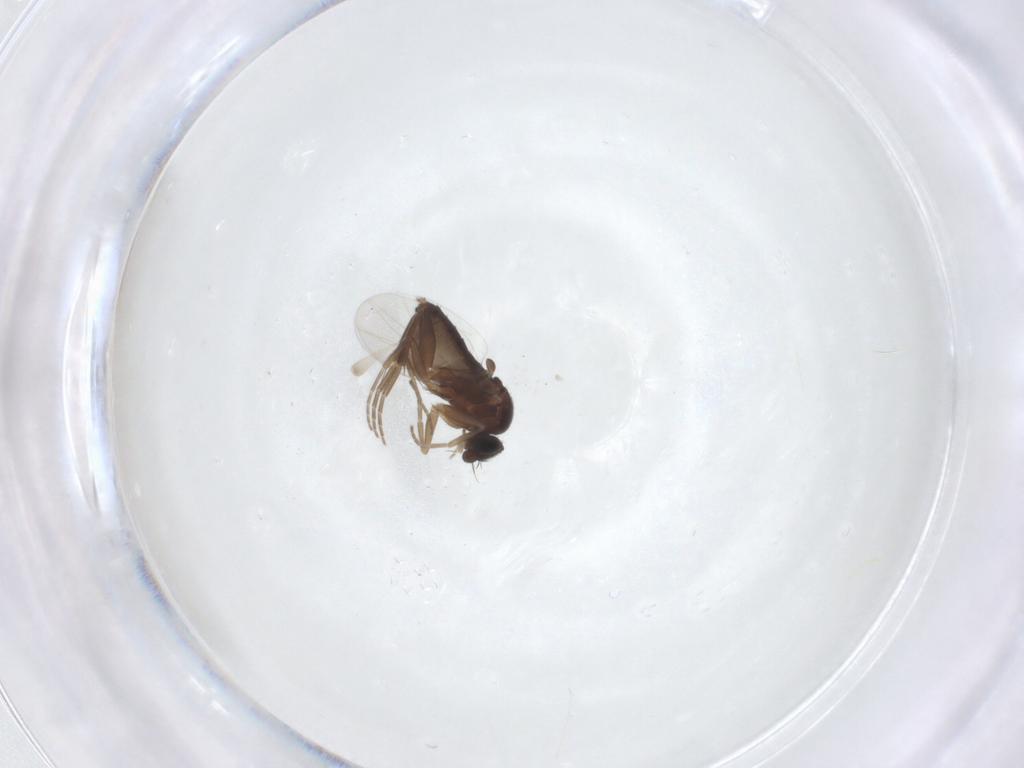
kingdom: Animalia
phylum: Arthropoda
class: Insecta
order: Diptera
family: Phoridae
